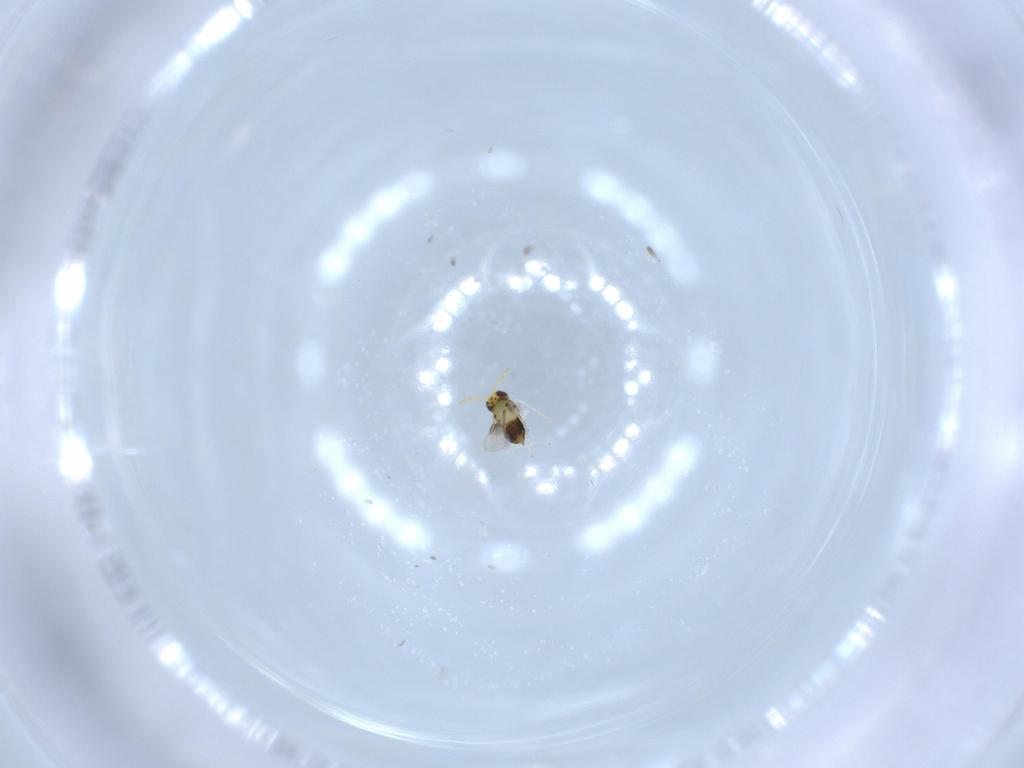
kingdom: Animalia
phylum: Arthropoda
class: Insecta
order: Hymenoptera
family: Aphelinidae
